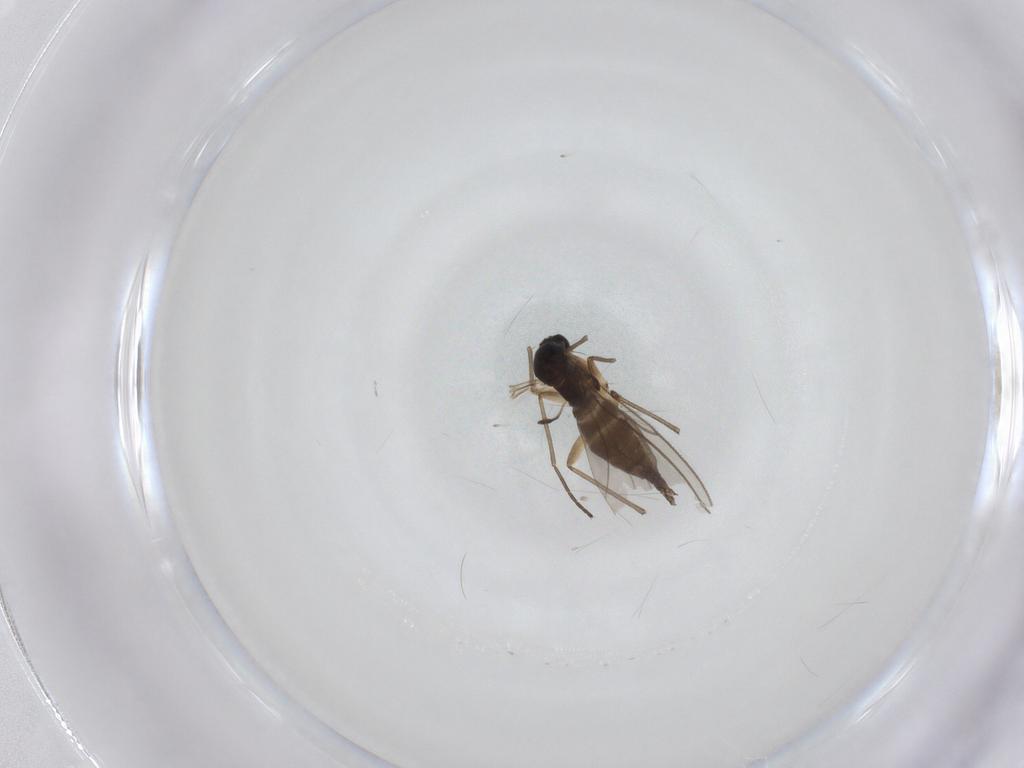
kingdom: Animalia
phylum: Arthropoda
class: Insecta
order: Diptera
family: Sciaridae
